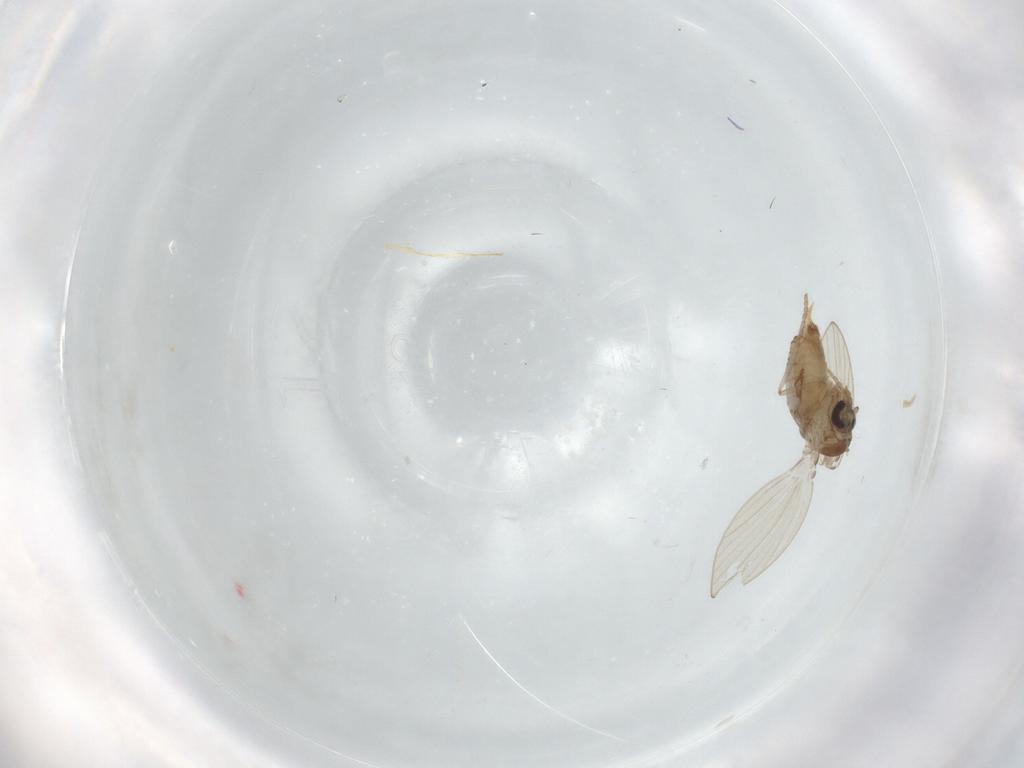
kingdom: Animalia
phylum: Arthropoda
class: Insecta
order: Diptera
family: Psychodidae
